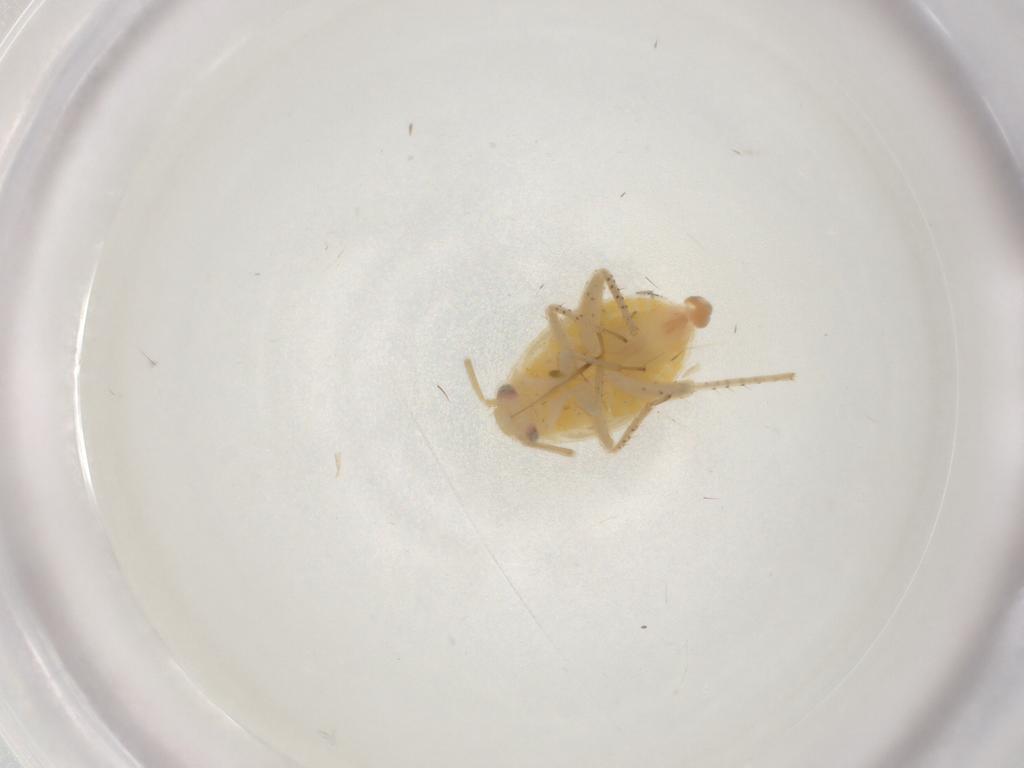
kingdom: Animalia
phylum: Arthropoda
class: Insecta
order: Diptera
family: Chironomidae
